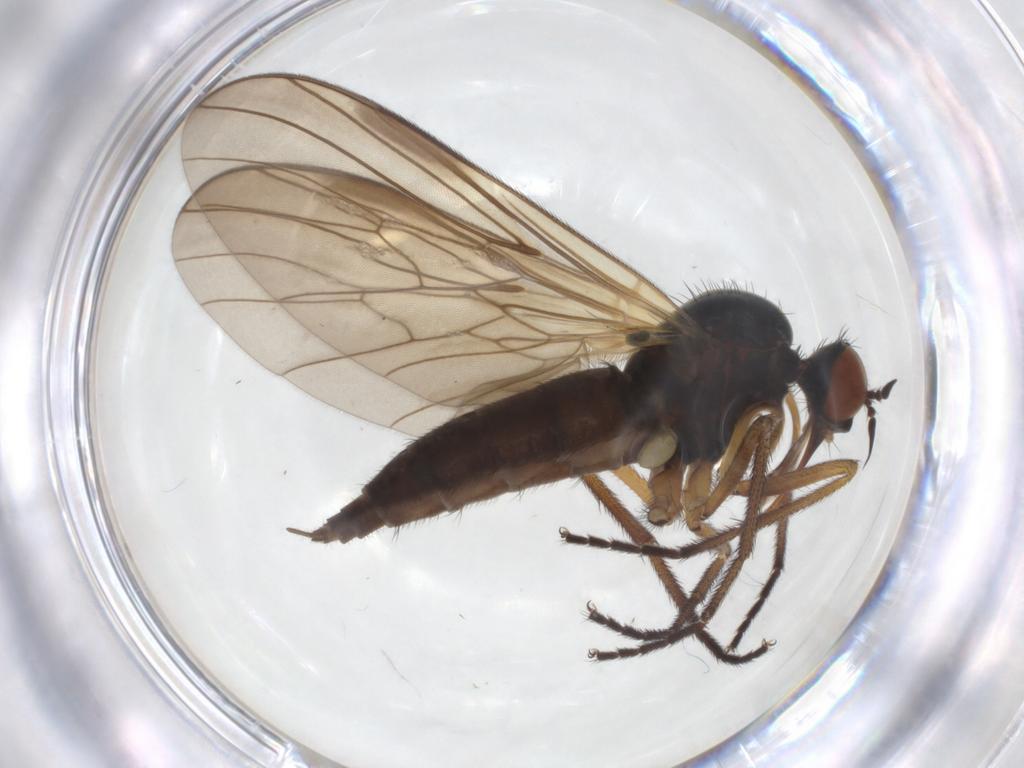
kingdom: Animalia
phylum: Arthropoda
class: Insecta
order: Diptera
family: Empididae
